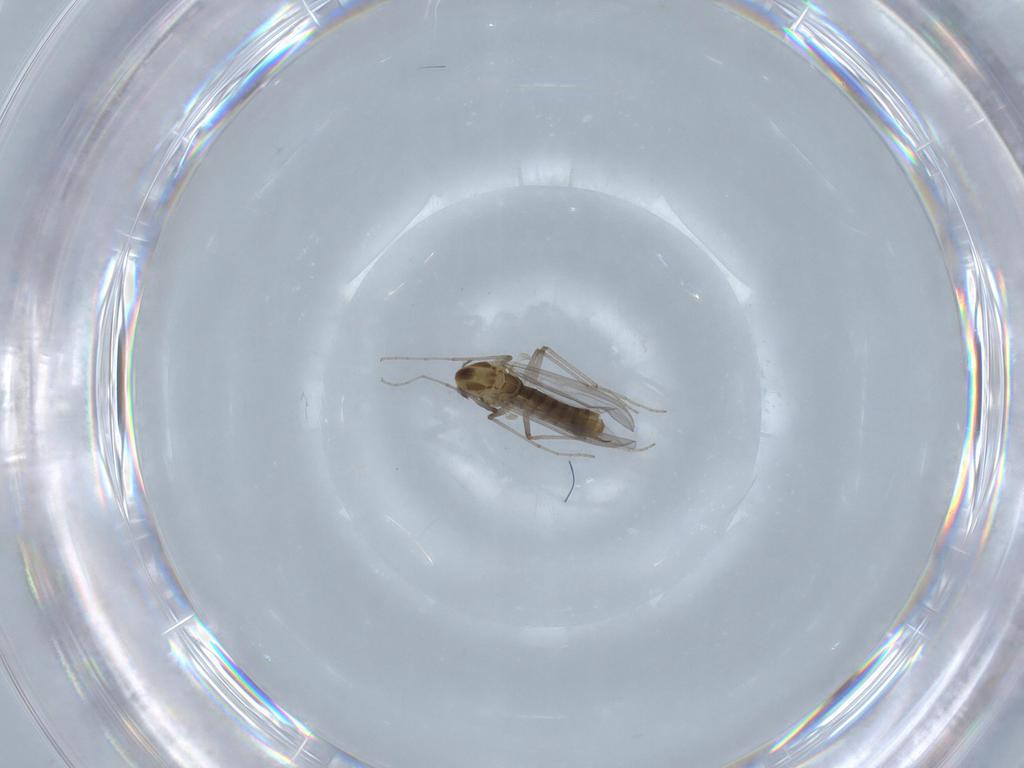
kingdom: Animalia
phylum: Arthropoda
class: Insecta
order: Diptera
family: Chironomidae
